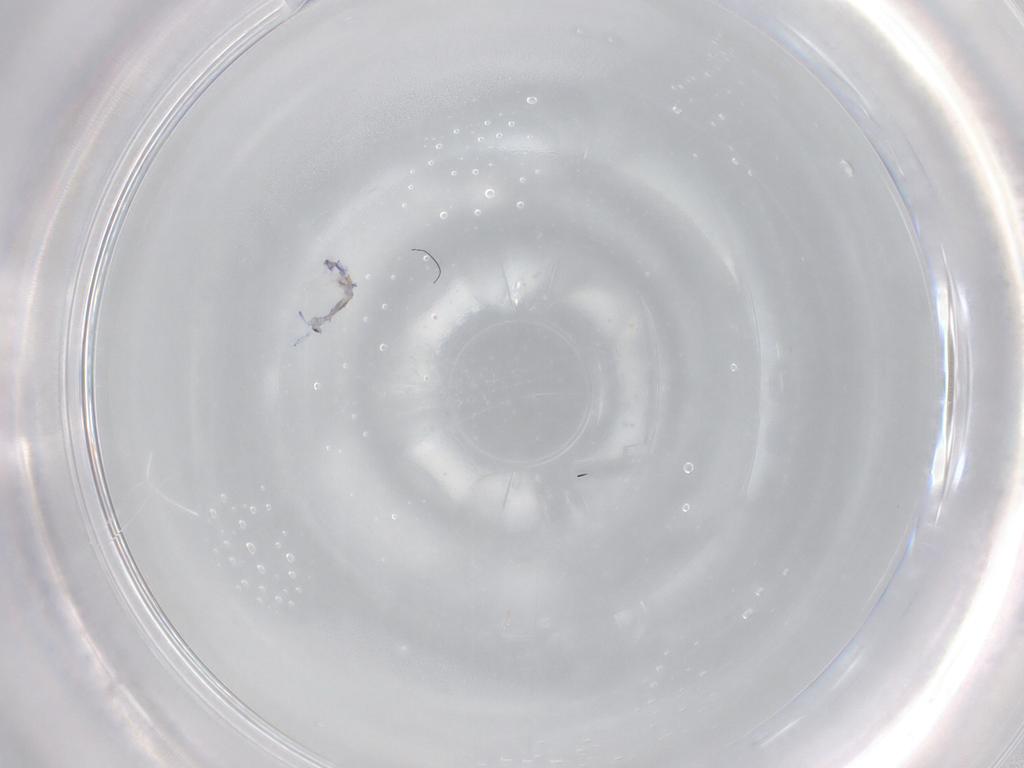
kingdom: Animalia
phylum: Arthropoda
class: Collembola
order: Entomobryomorpha
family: Entomobryidae
